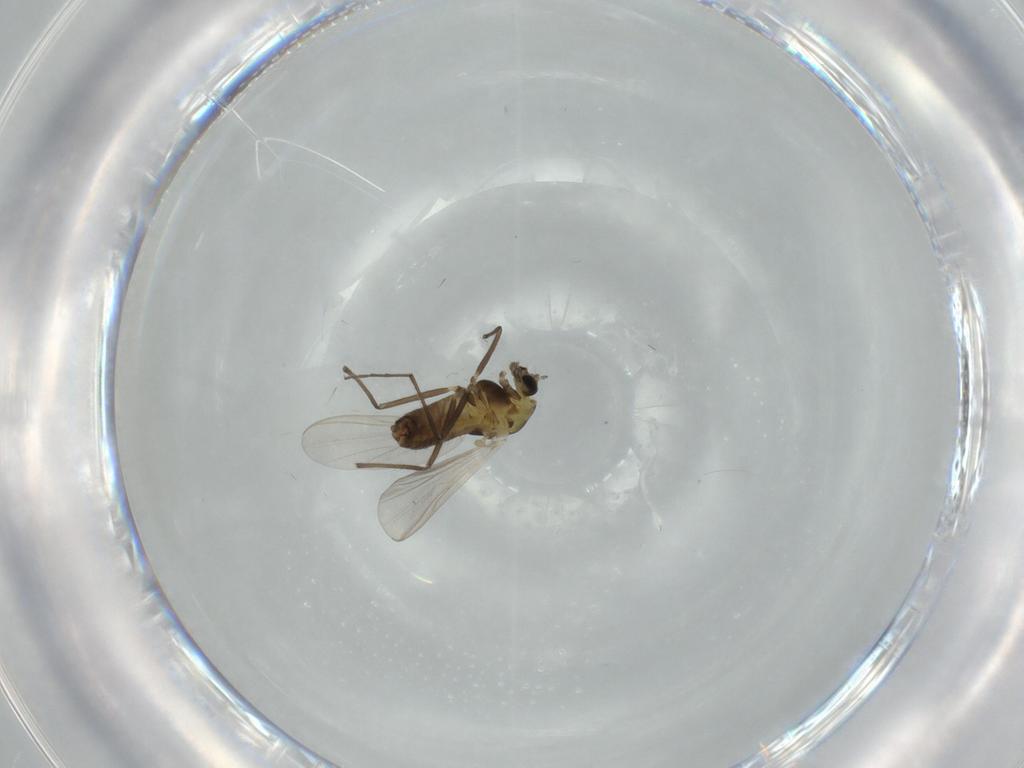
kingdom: Animalia
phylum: Arthropoda
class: Insecta
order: Diptera
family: Chironomidae
